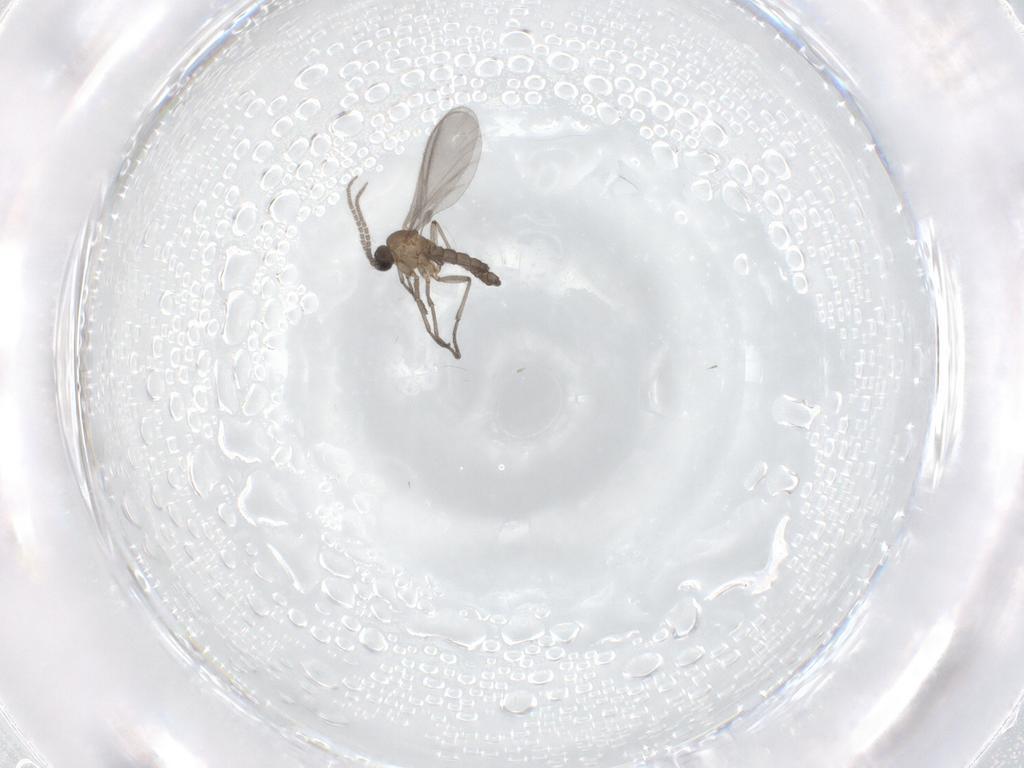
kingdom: Animalia
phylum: Arthropoda
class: Insecta
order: Diptera
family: Sciaridae
